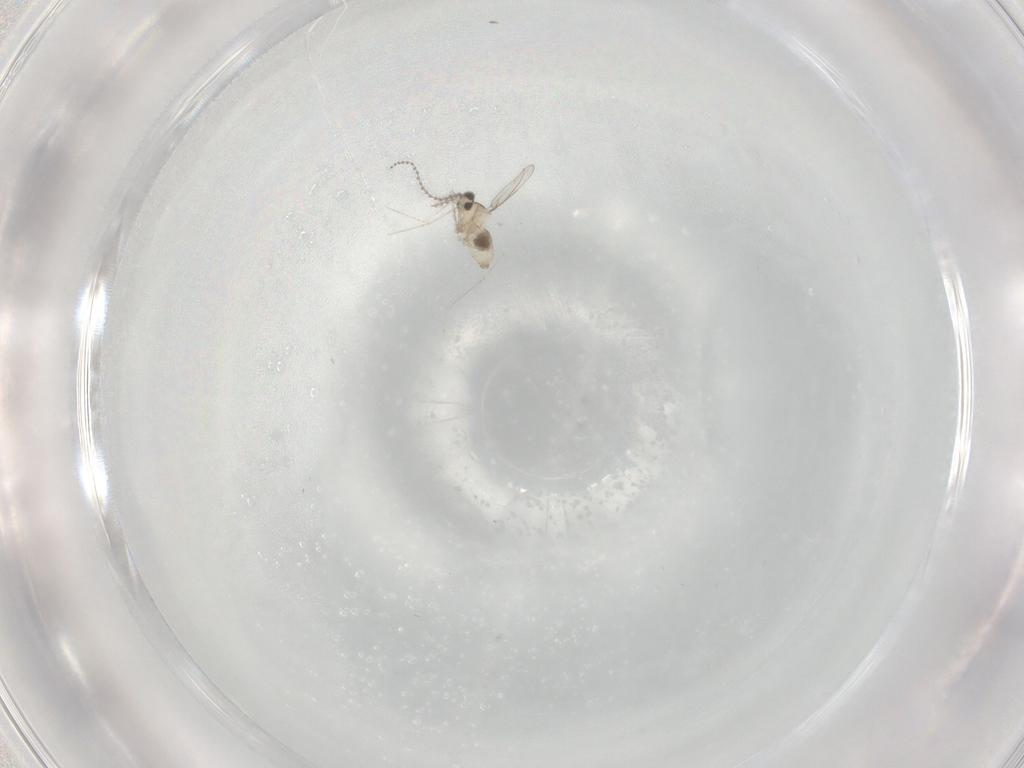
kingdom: Animalia
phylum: Arthropoda
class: Insecta
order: Diptera
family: Cecidomyiidae
